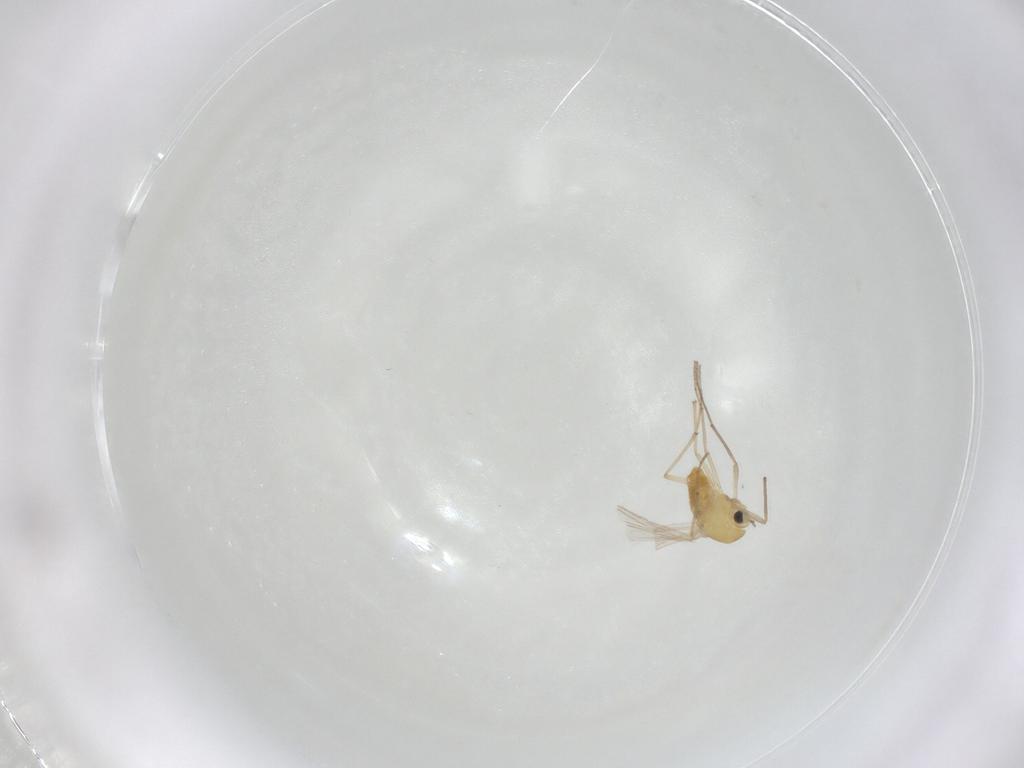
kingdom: Animalia
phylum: Arthropoda
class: Insecta
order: Diptera
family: Chironomidae
